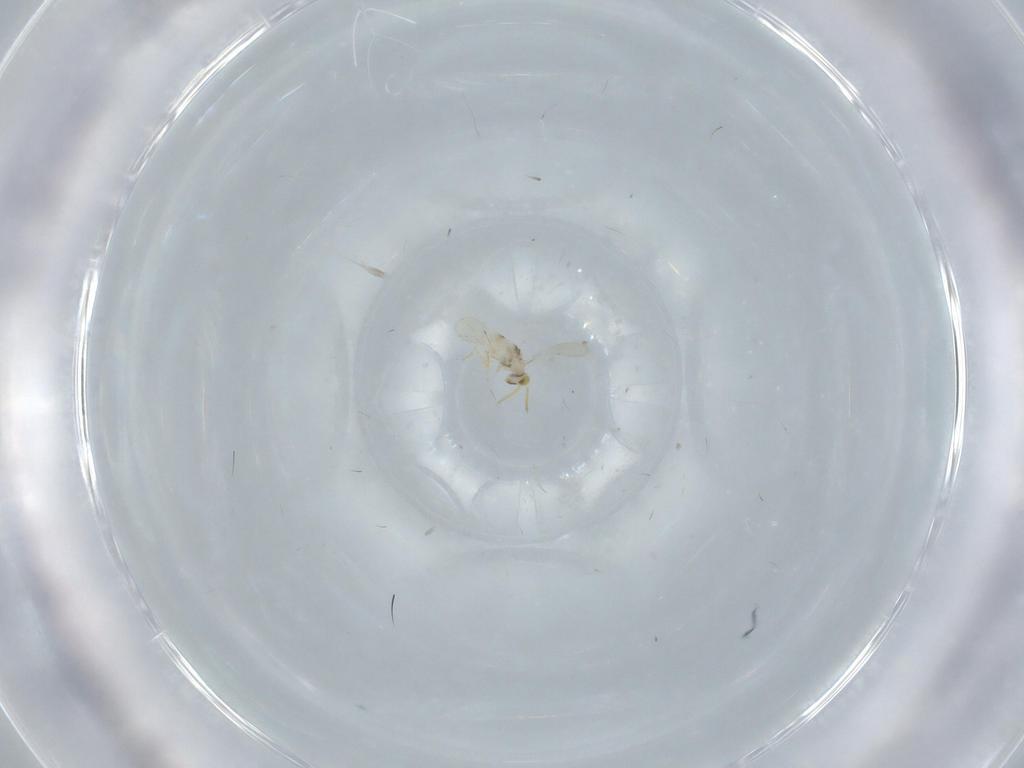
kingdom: Animalia
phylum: Arthropoda
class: Insecta
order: Hymenoptera
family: Aphelinidae
